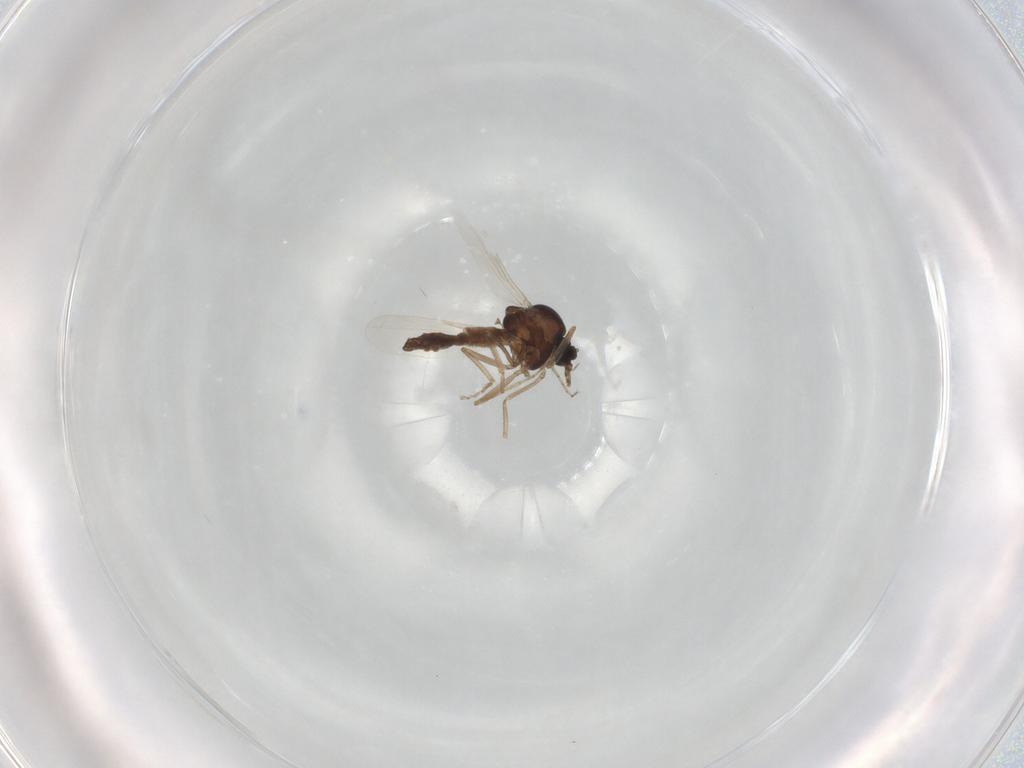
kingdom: Animalia
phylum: Arthropoda
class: Insecta
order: Diptera
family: Ceratopogonidae
